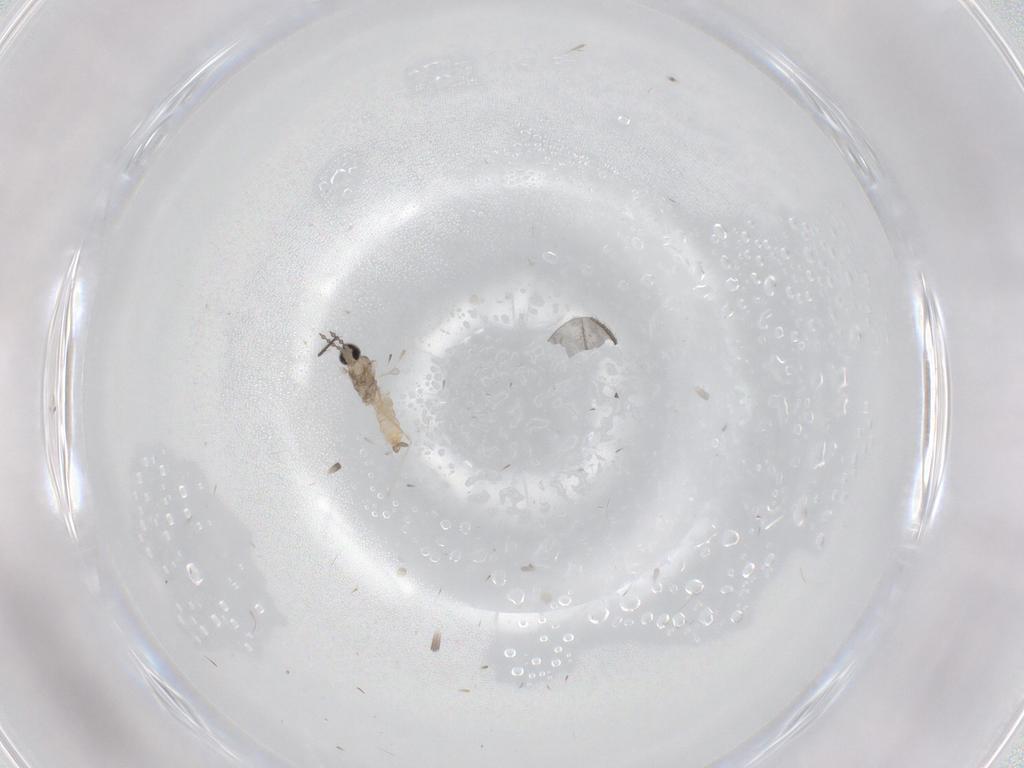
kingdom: Animalia
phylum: Arthropoda
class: Insecta
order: Diptera
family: Cecidomyiidae
